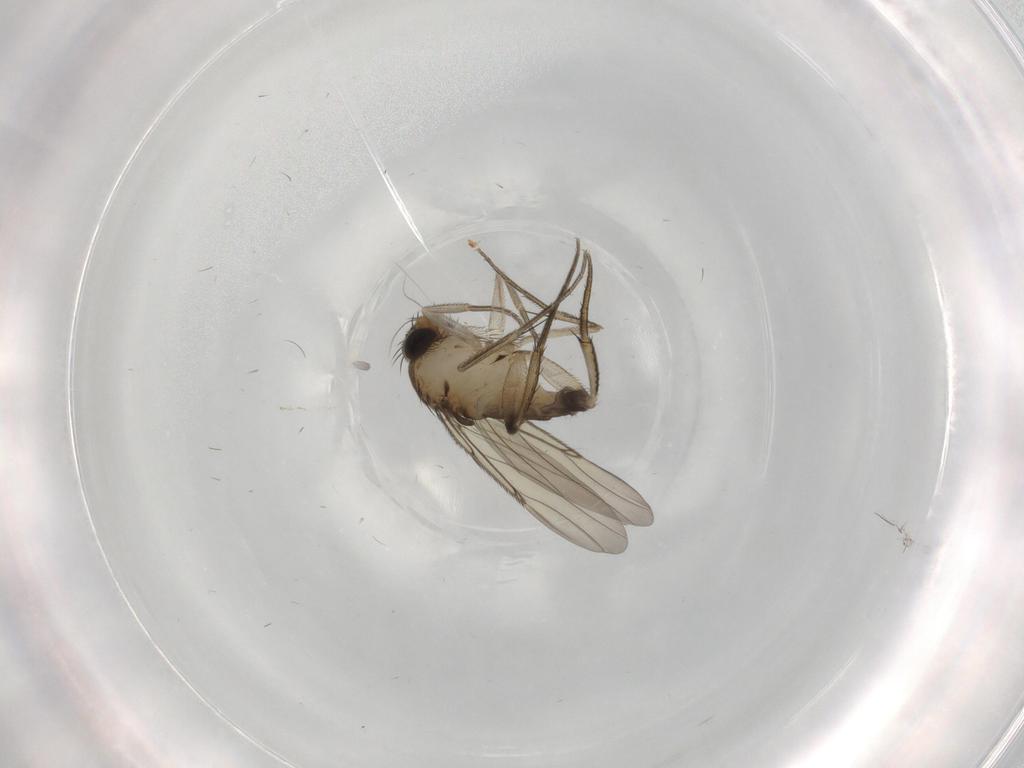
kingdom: Animalia
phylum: Arthropoda
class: Insecta
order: Diptera
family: Phoridae
